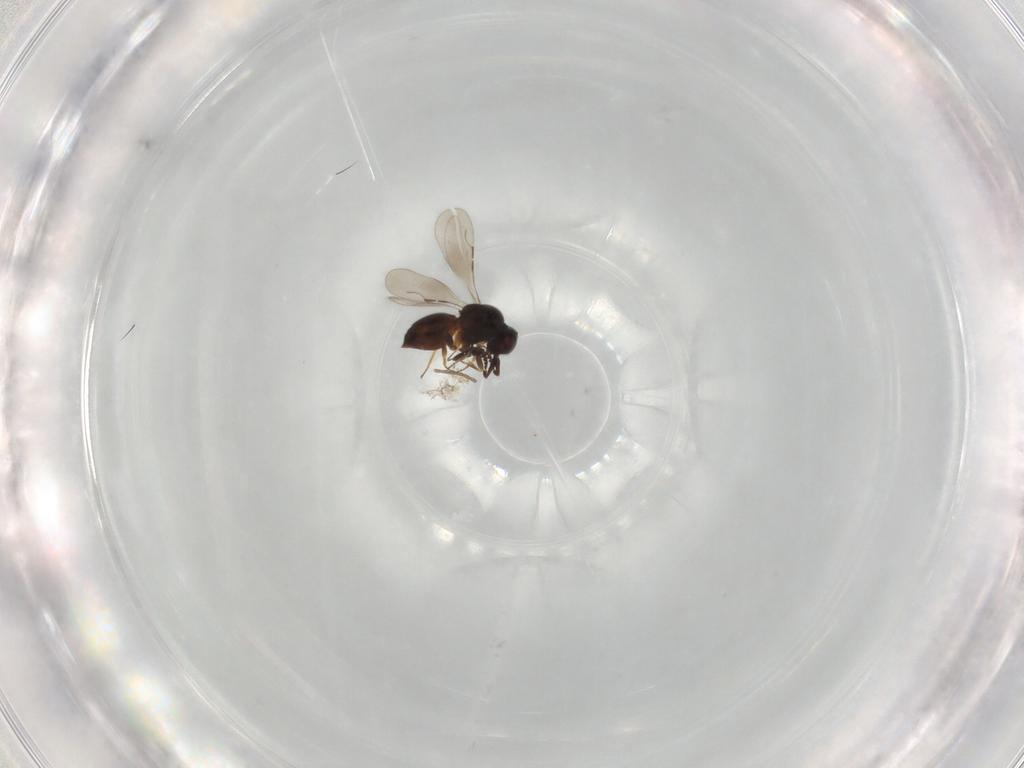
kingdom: Animalia
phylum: Arthropoda
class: Insecta
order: Hymenoptera
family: Ceraphronidae
